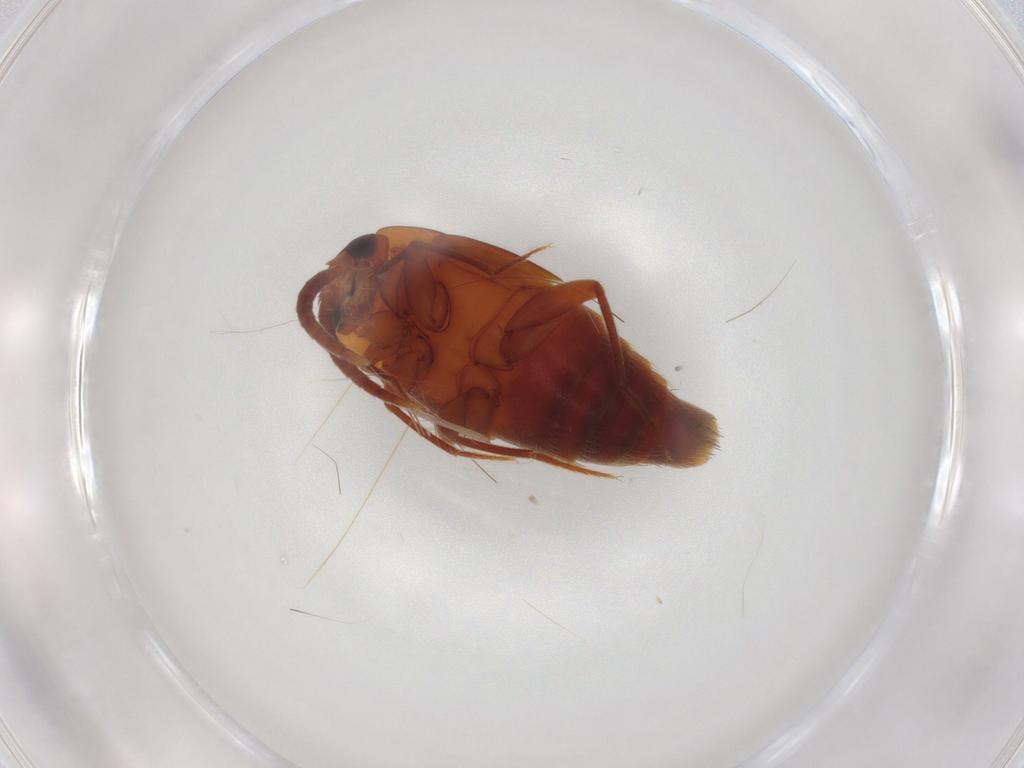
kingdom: Animalia
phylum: Arthropoda
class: Insecta
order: Coleoptera
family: Staphylinidae
